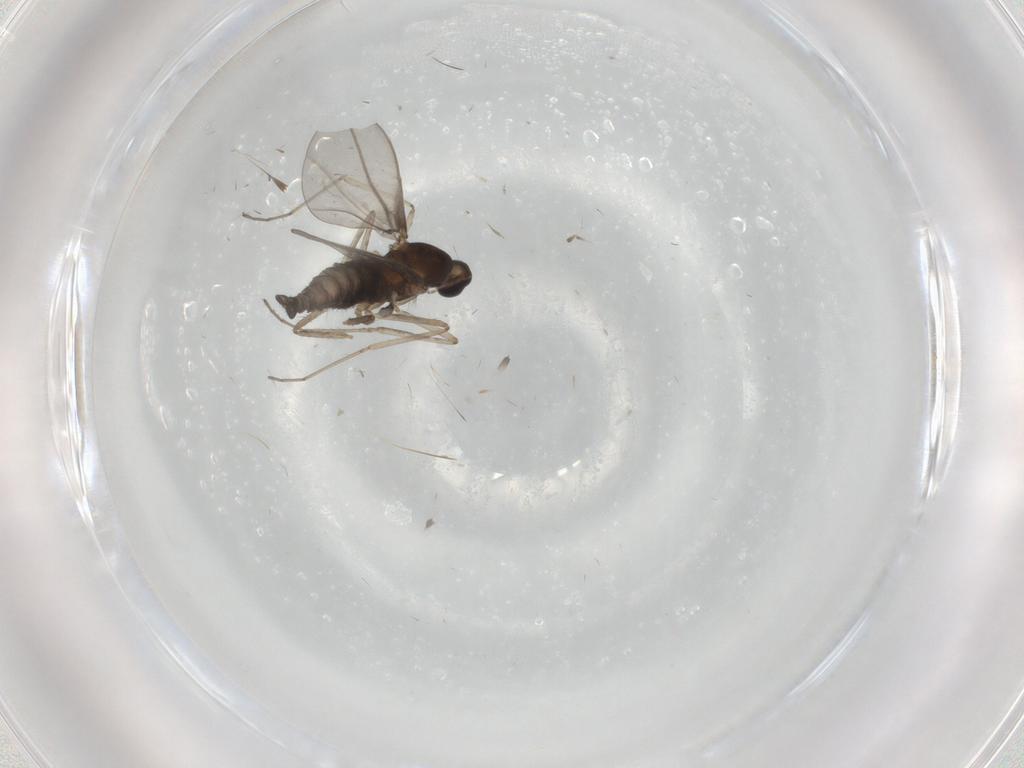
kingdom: Animalia
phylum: Arthropoda
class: Insecta
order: Diptera
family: Cecidomyiidae
